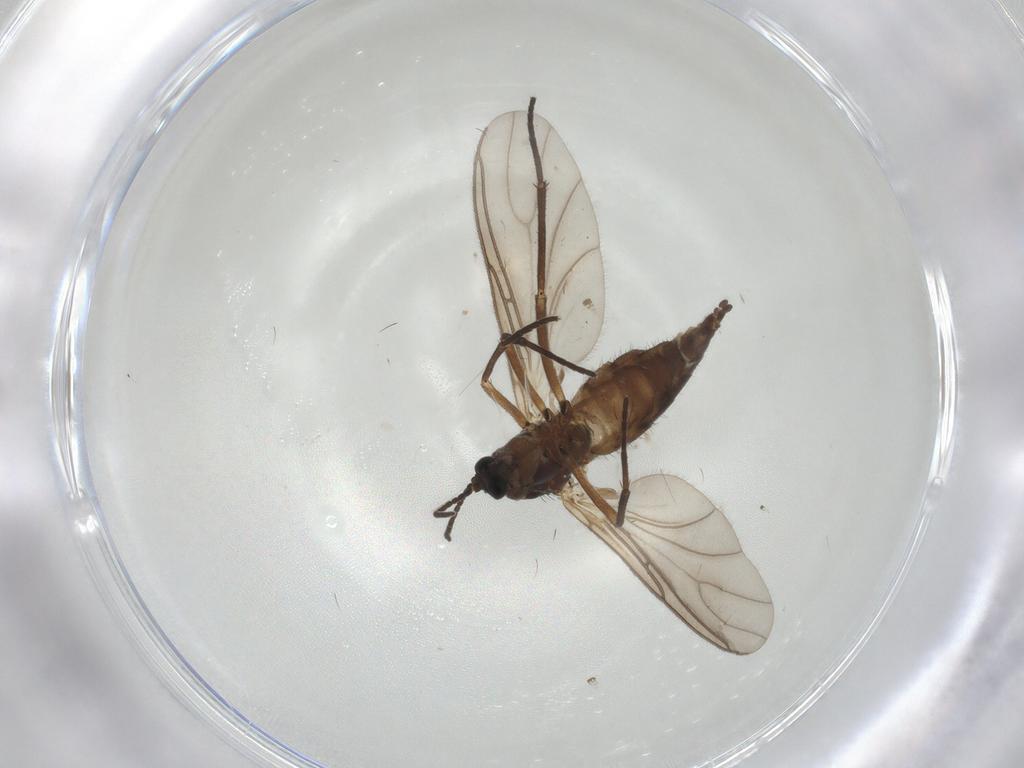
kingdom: Animalia
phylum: Arthropoda
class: Insecta
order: Diptera
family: Sciaridae
